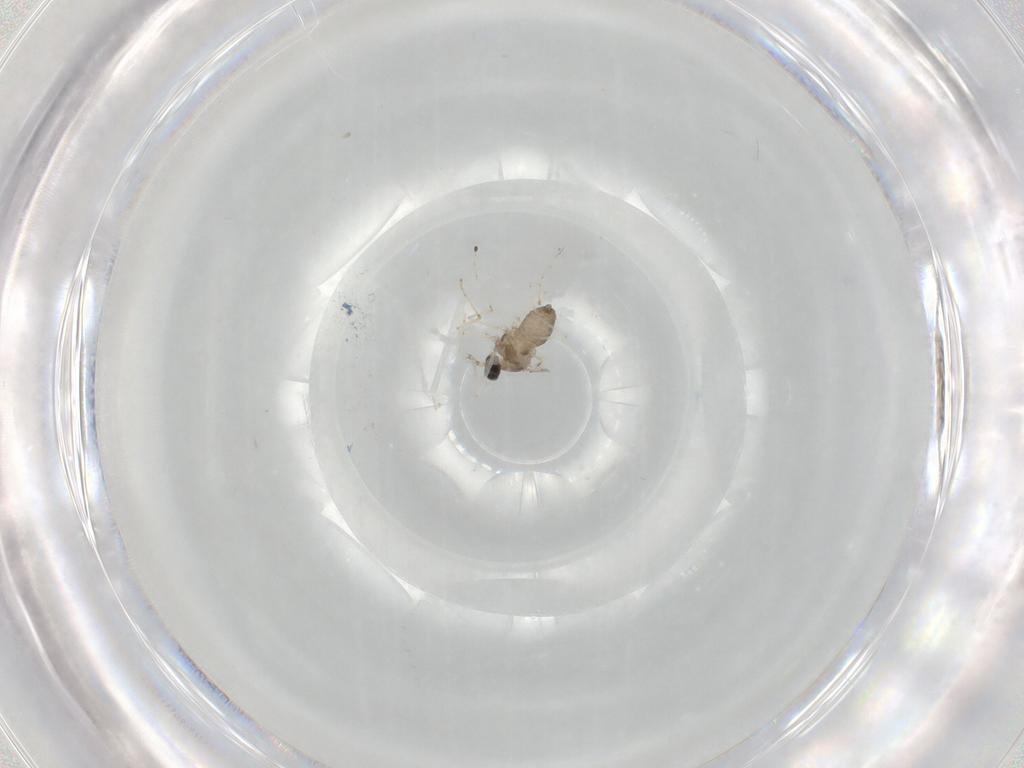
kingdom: Animalia
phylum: Arthropoda
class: Insecta
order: Diptera
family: Cecidomyiidae
